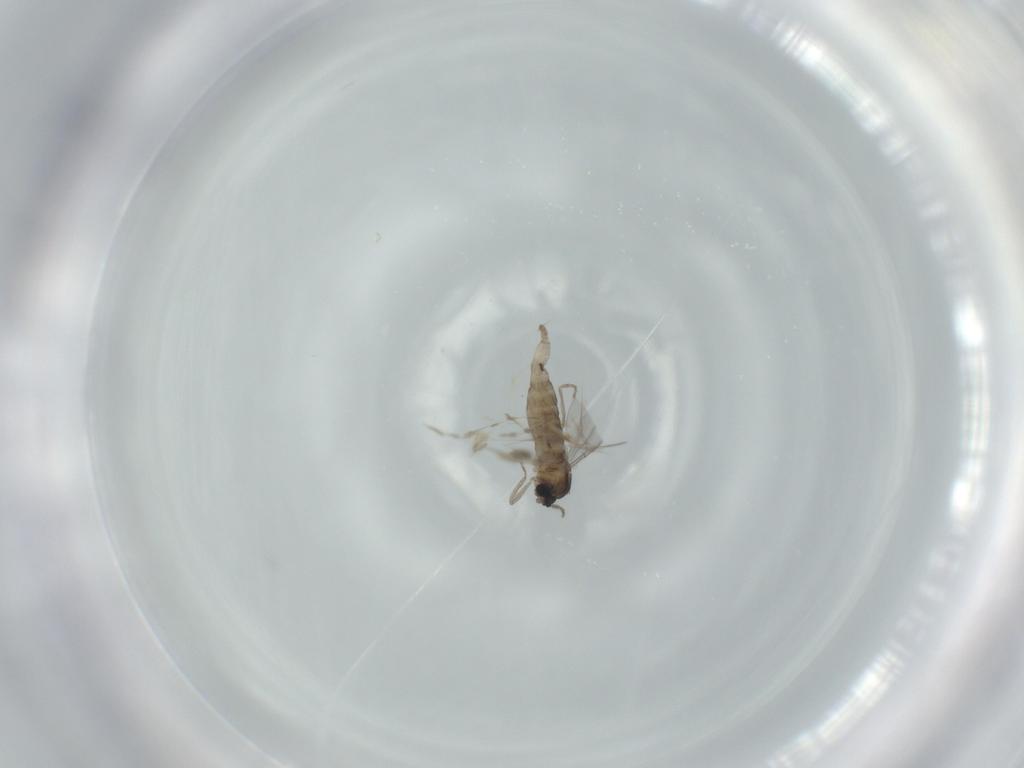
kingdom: Animalia
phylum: Arthropoda
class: Insecta
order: Diptera
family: Cecidomyiidae
